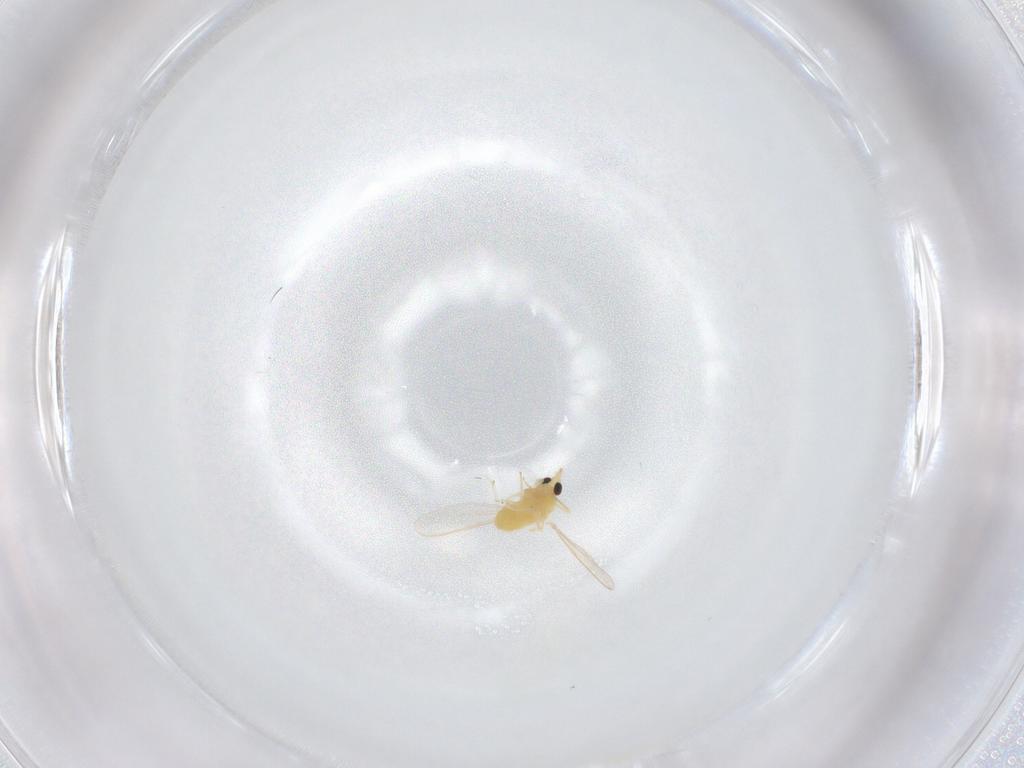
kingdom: Animalia
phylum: Arthropoda
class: Insecta
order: Diptera
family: Chironomidae
